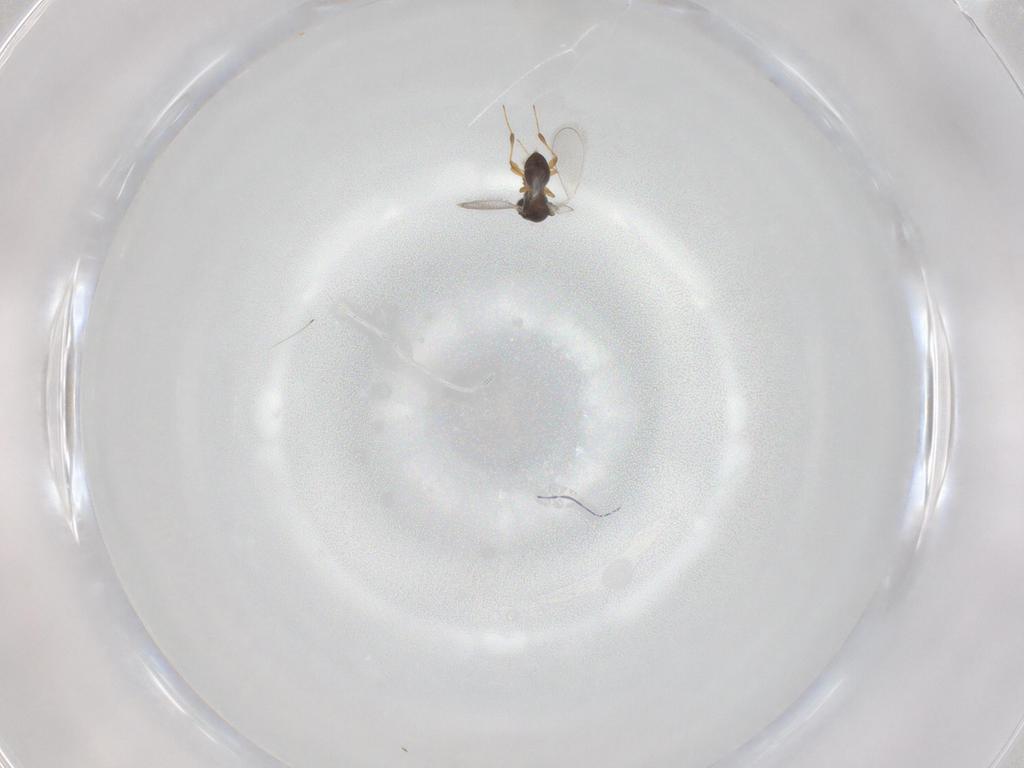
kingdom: Animalia
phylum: Arthropoda
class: Insecta
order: Hymenoptera
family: Platygastridae
